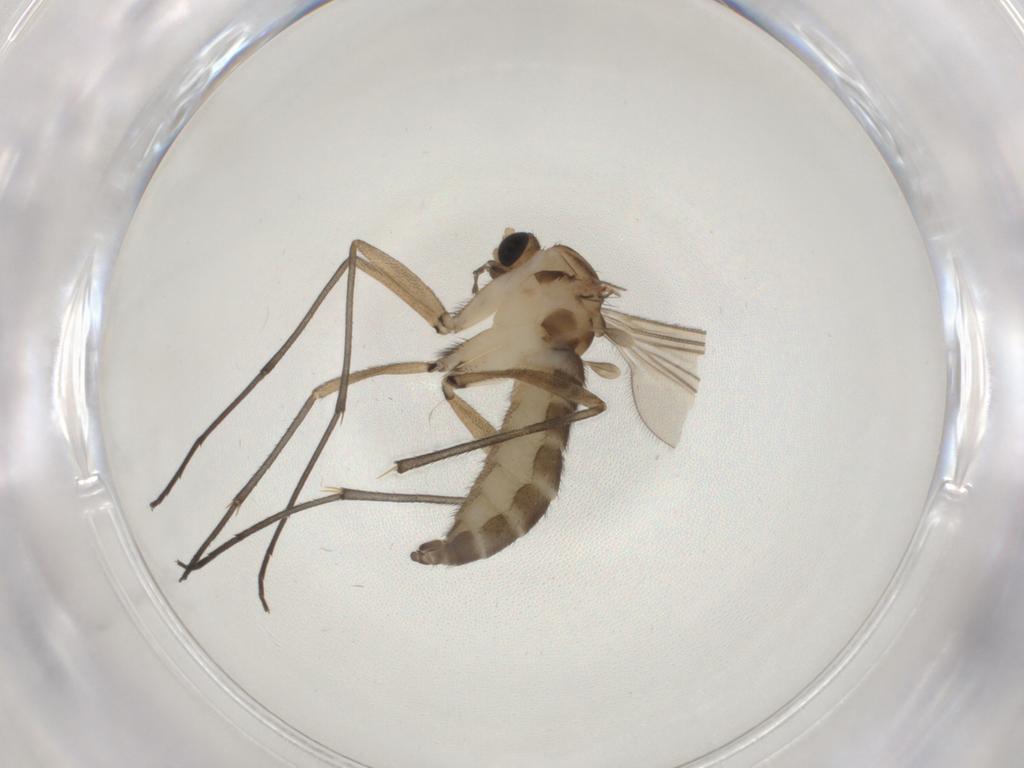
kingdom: Animalia
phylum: Arthropoda
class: Insecta
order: Diptera
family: Sciaridae
